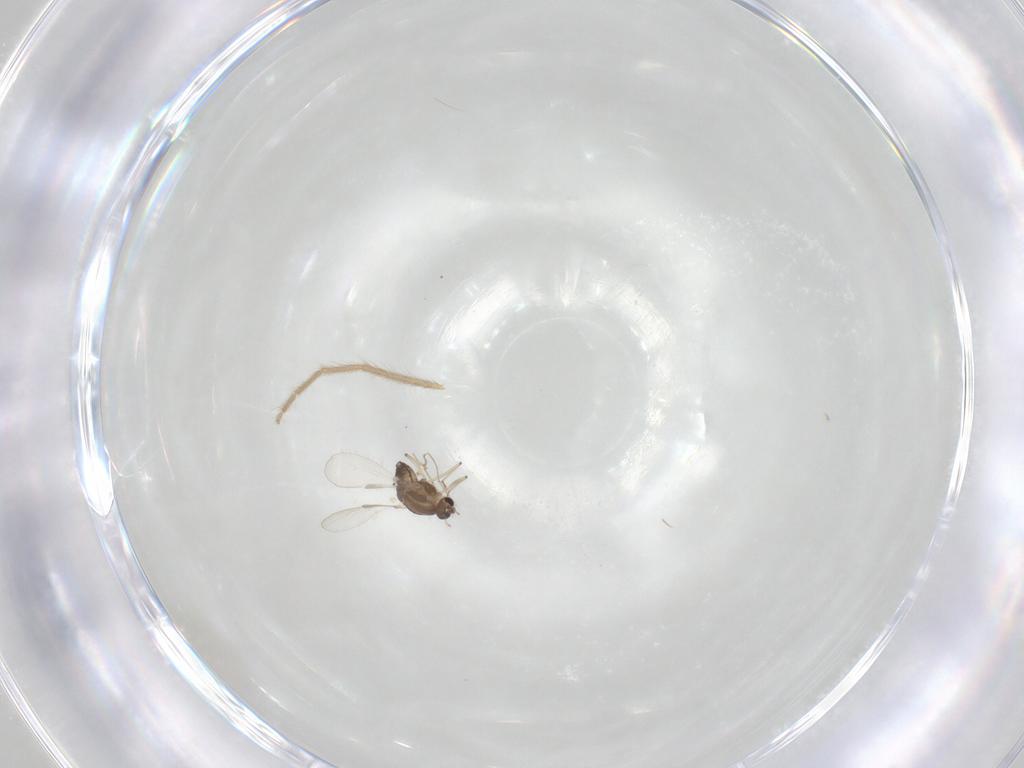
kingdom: Animalia
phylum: Arthropoda
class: Insecta
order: Diptera
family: Chironomidae
